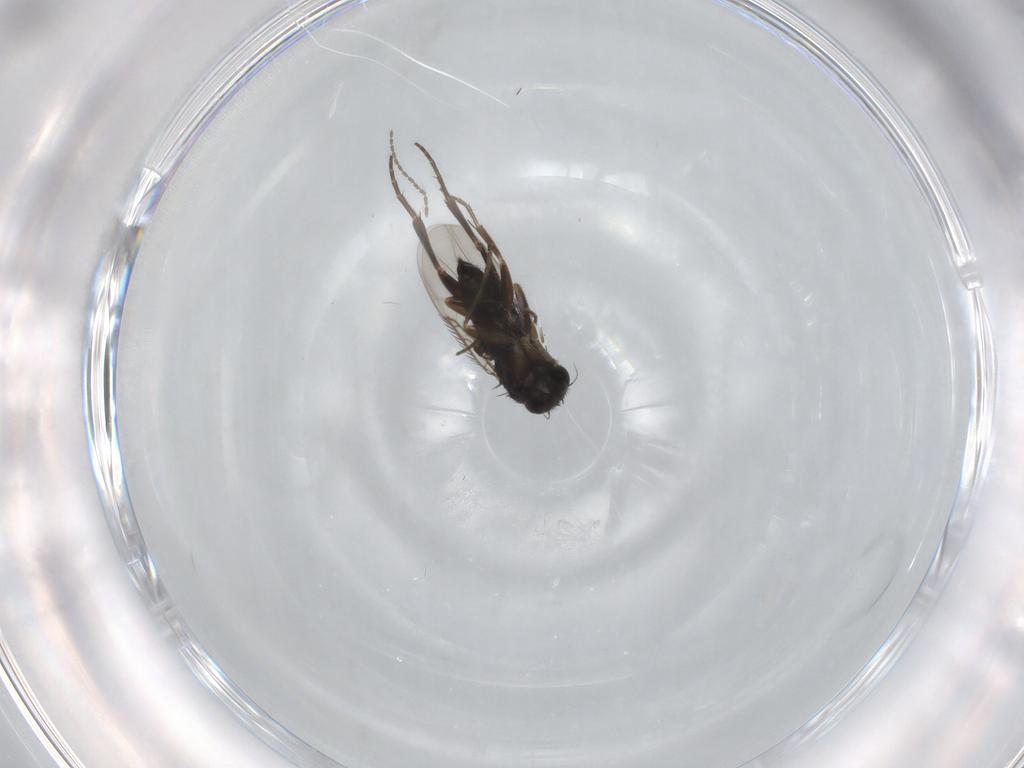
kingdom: Animalia
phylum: Arthropoda
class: Insecta
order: Diptera
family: Phoridae
